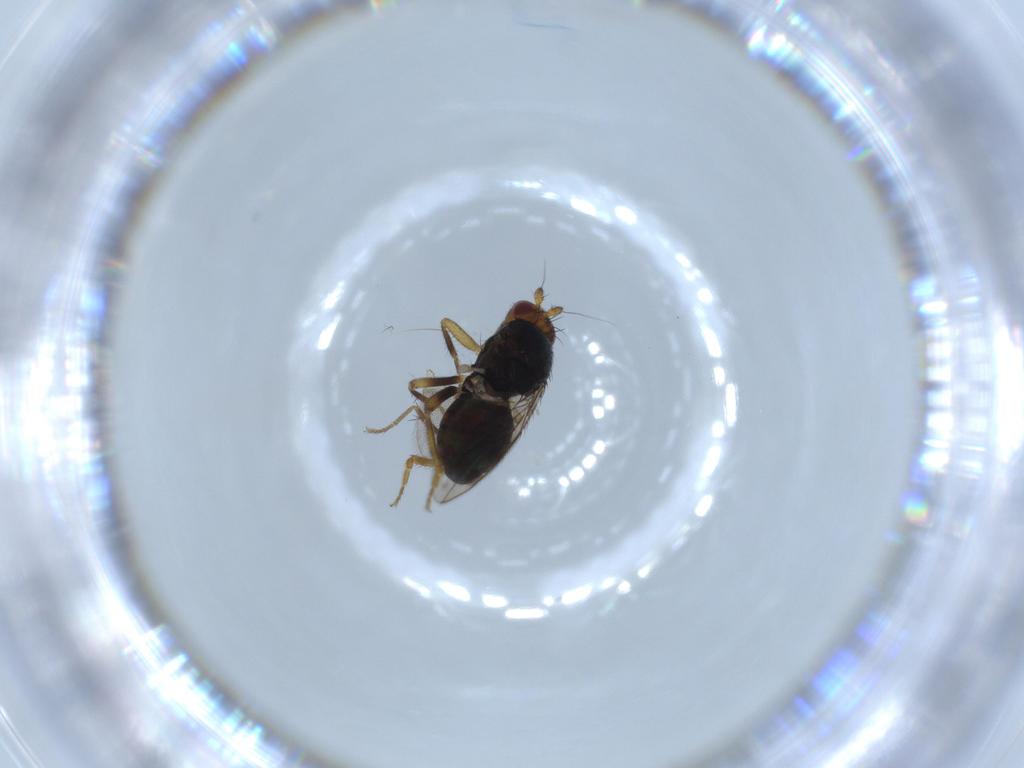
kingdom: Animalia
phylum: Arthropoda
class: Insecta
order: Diptera
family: Sphaeroceridae
